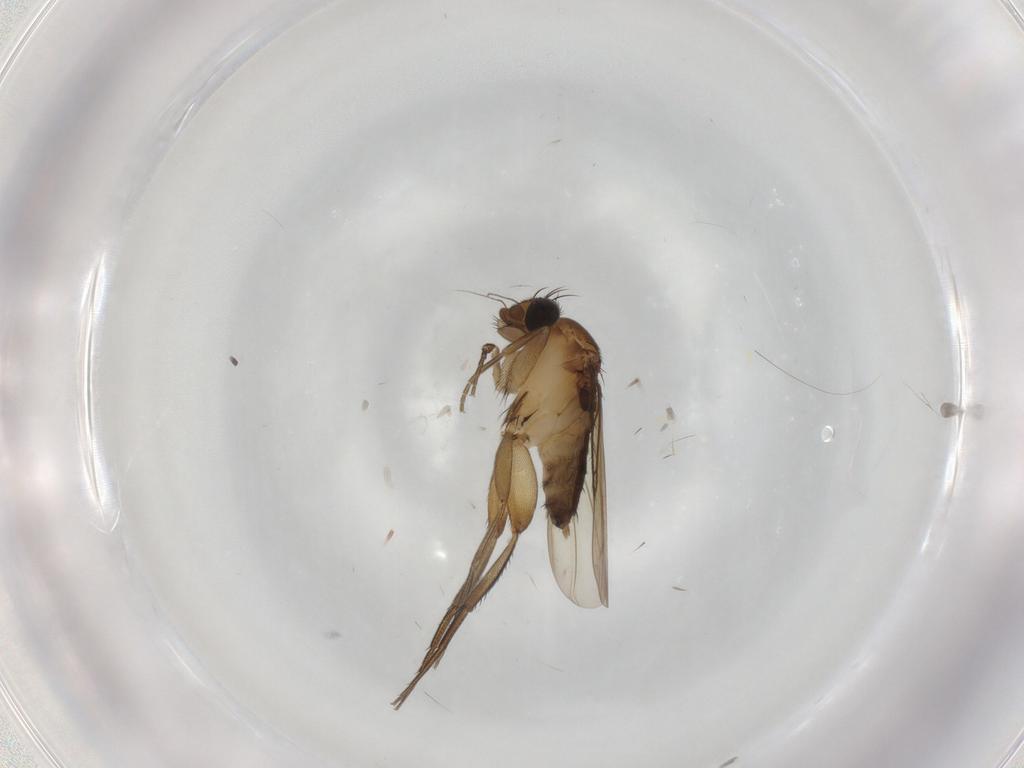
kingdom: Animalia
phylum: Arthropoda
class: Insecta
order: Diptera
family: Phoridae
